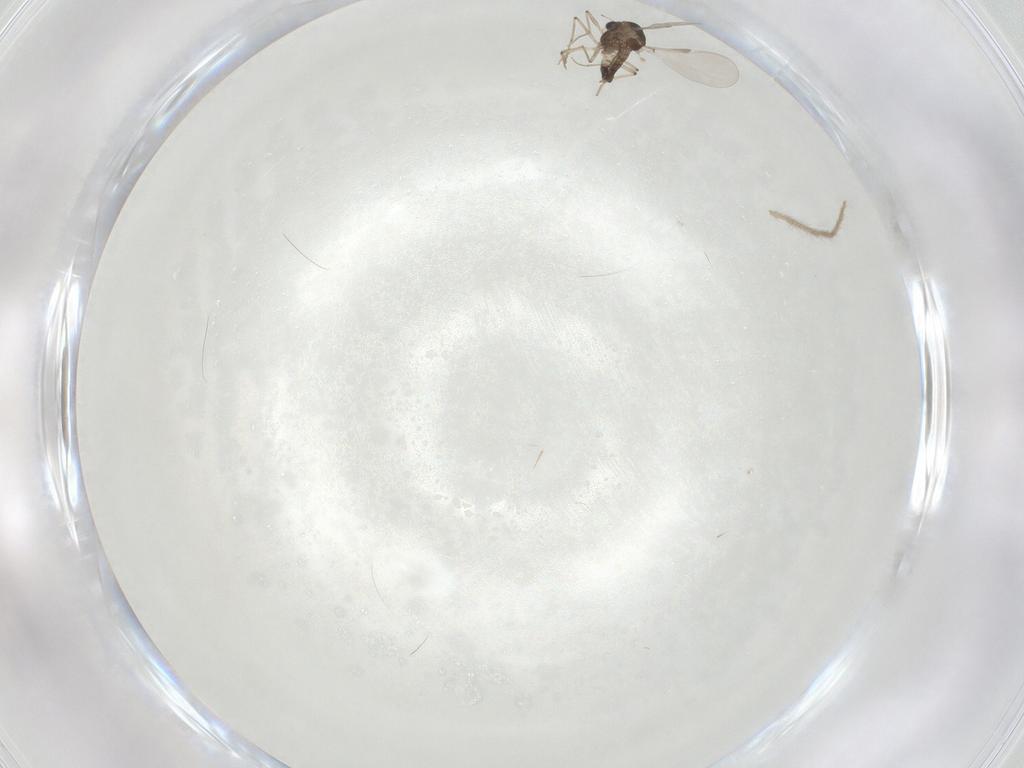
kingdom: Animalia
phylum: Arthropoda
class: Insecta
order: Diptera
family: Chironomidae
